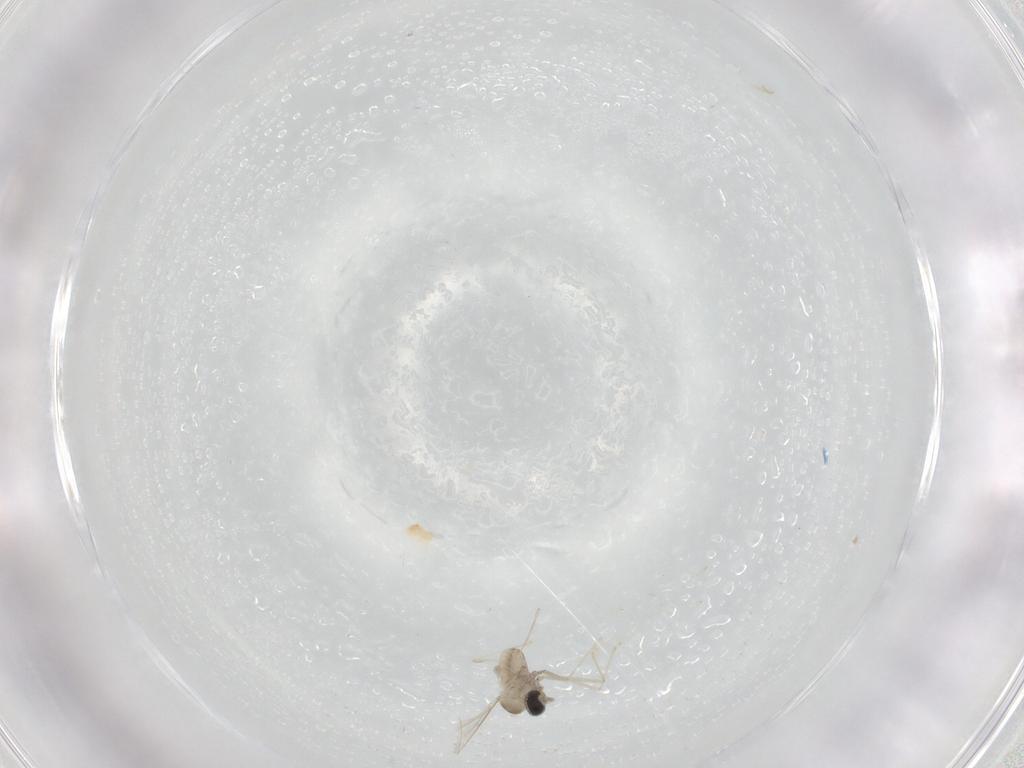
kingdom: Animalia
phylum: Arthropoda
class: Insecta
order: Diptera
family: Cecidomyiidae
